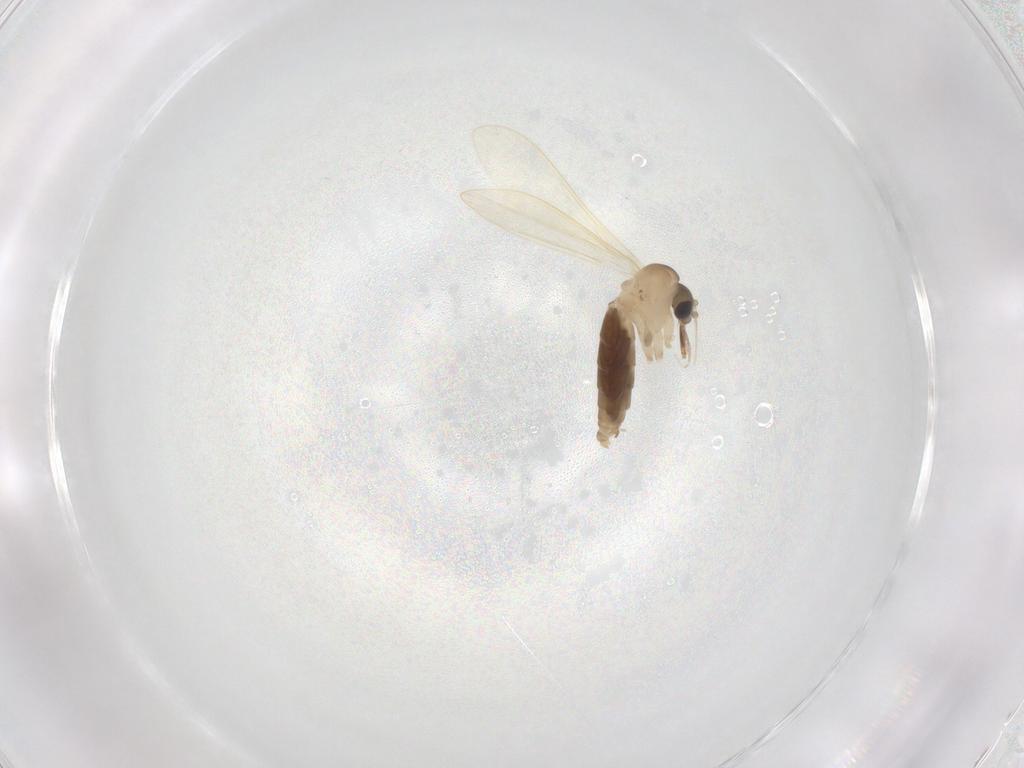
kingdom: Animalia
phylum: Arthropoda
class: Insecta
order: Diptera
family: Psychodidae
